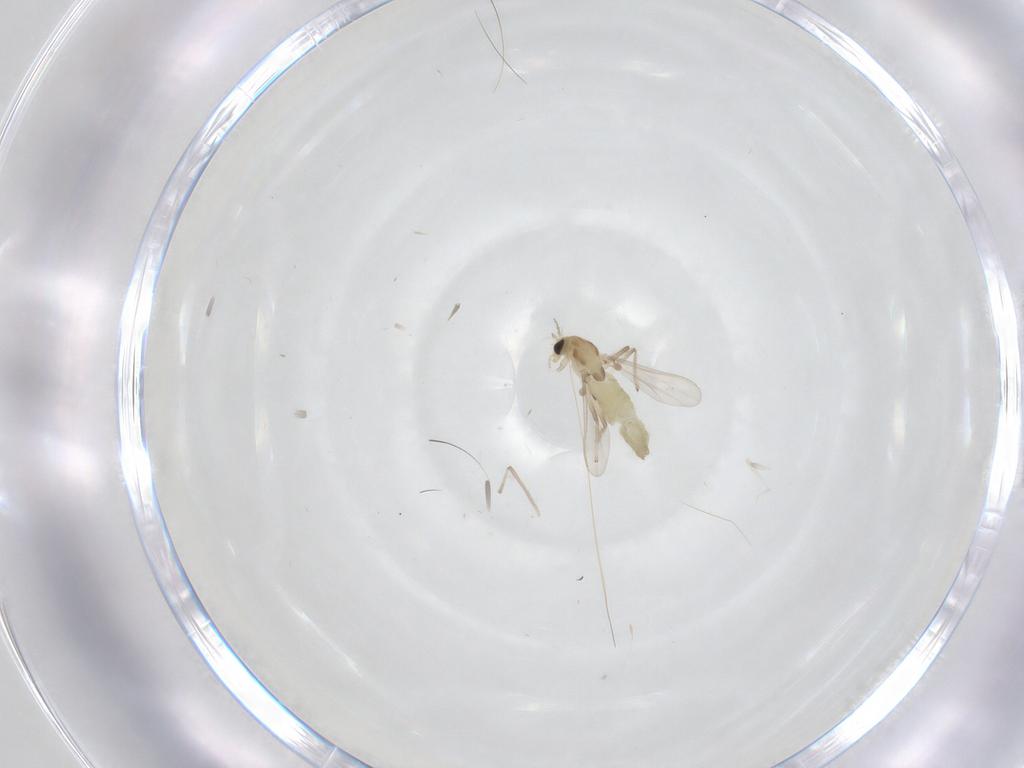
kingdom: Animalia
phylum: Arthropoda
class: Insecta
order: Diptera
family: Chironomidae
